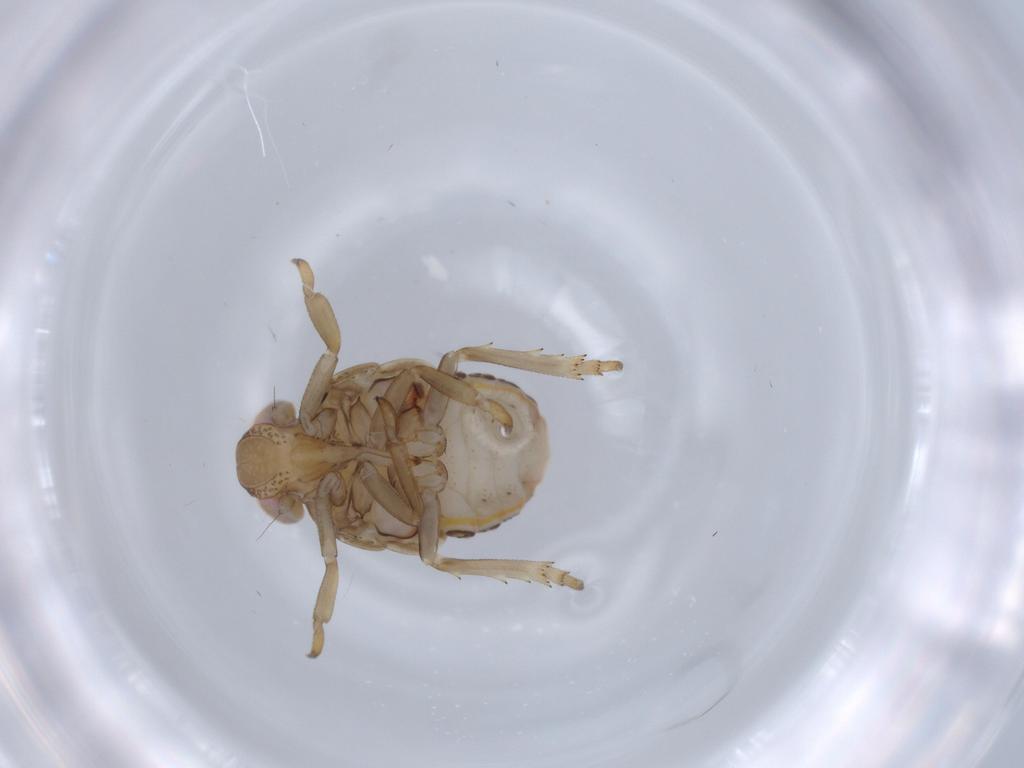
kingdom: Animalia
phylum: Arthropoda
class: Insecta
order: Hemiptera
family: Issidae
